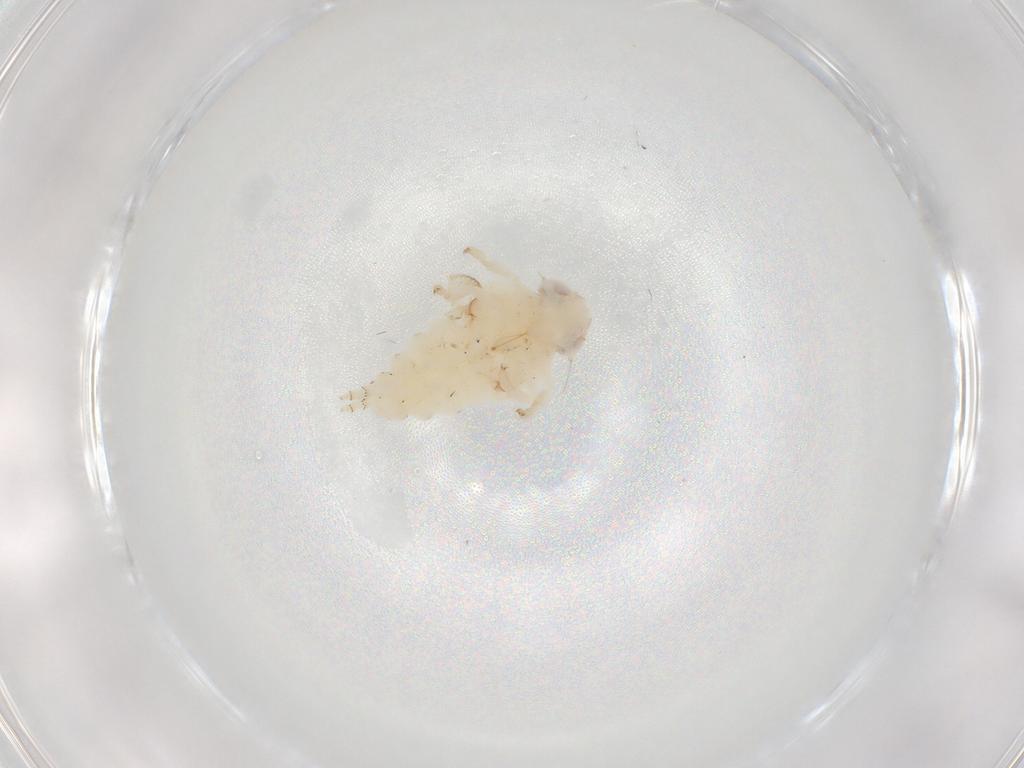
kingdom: Animalia
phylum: Arthropoda
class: Insecta
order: Hemiptera
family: Nogodinidae
